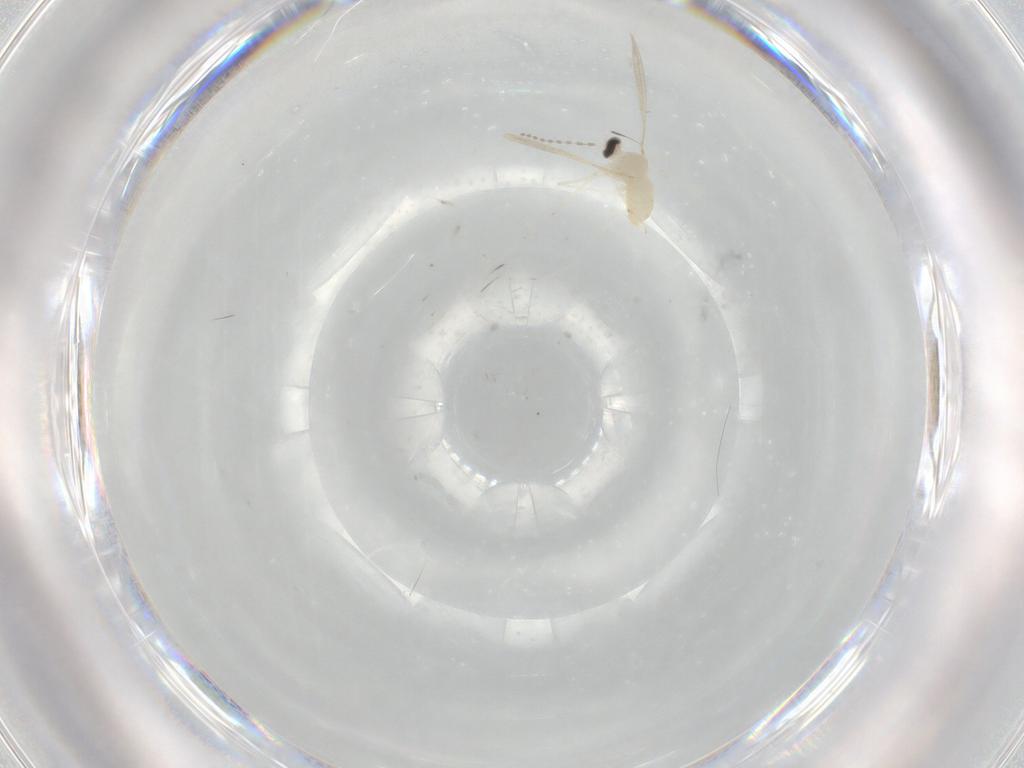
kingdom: Animalia
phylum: Arthropoda
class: Insecta
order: Diptera
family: Cecidomyiidae
